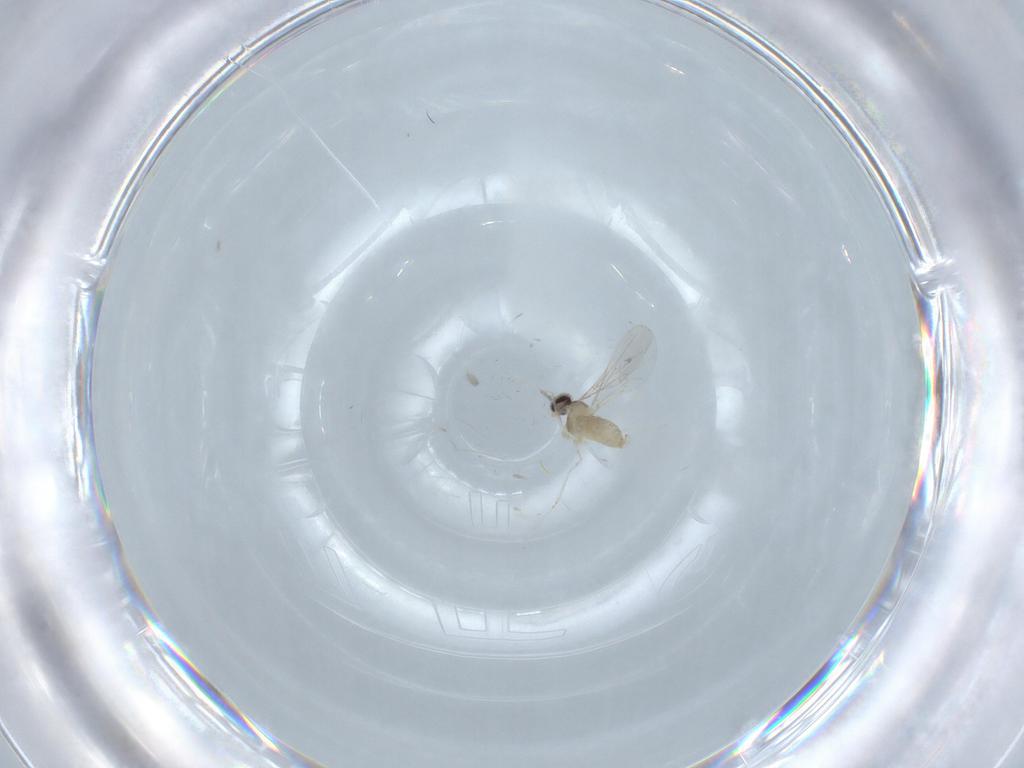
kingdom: Animalia
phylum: Arthropoda
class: Insecta
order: Diptera
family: Cecidomyiidae
